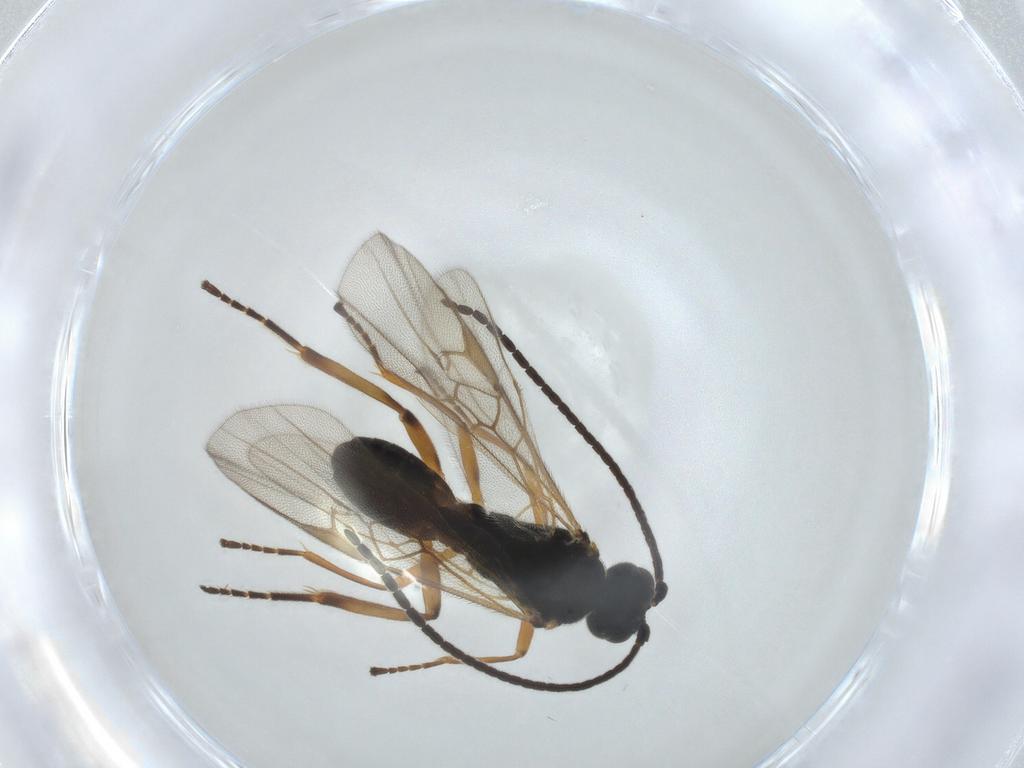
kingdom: Animalia
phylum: Arthropoda
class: Insecta
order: Hymenoptera
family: Braconidae
